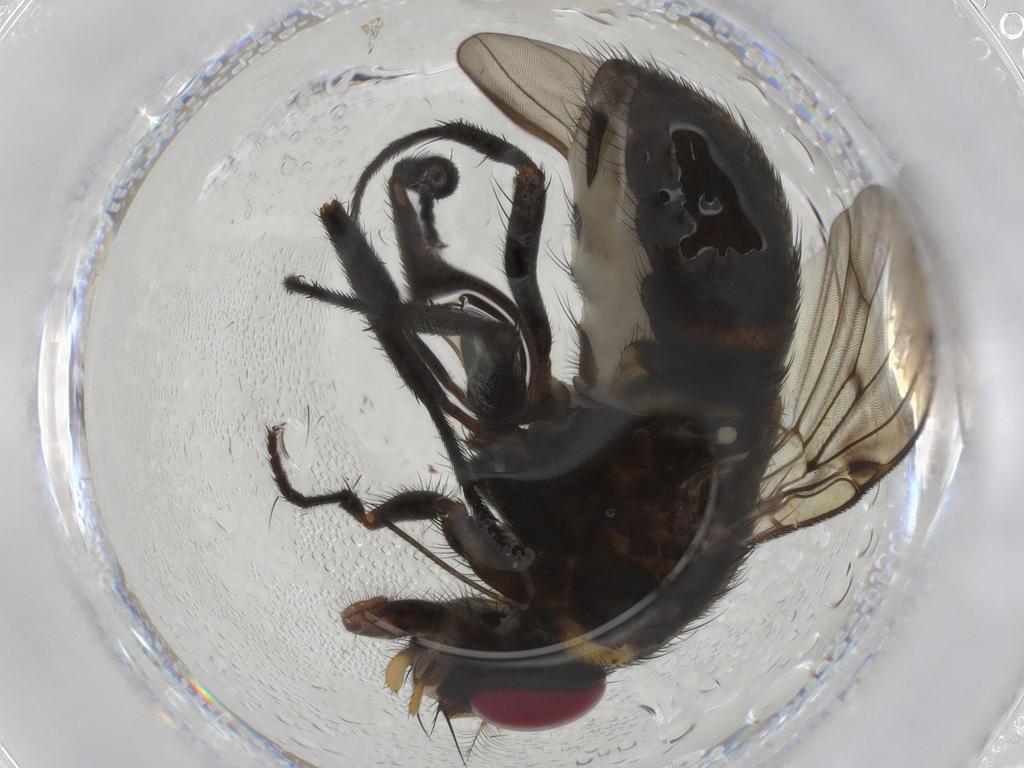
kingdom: Animalia
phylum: Arthropoda
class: Insecta
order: Diptera
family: Muscidae
